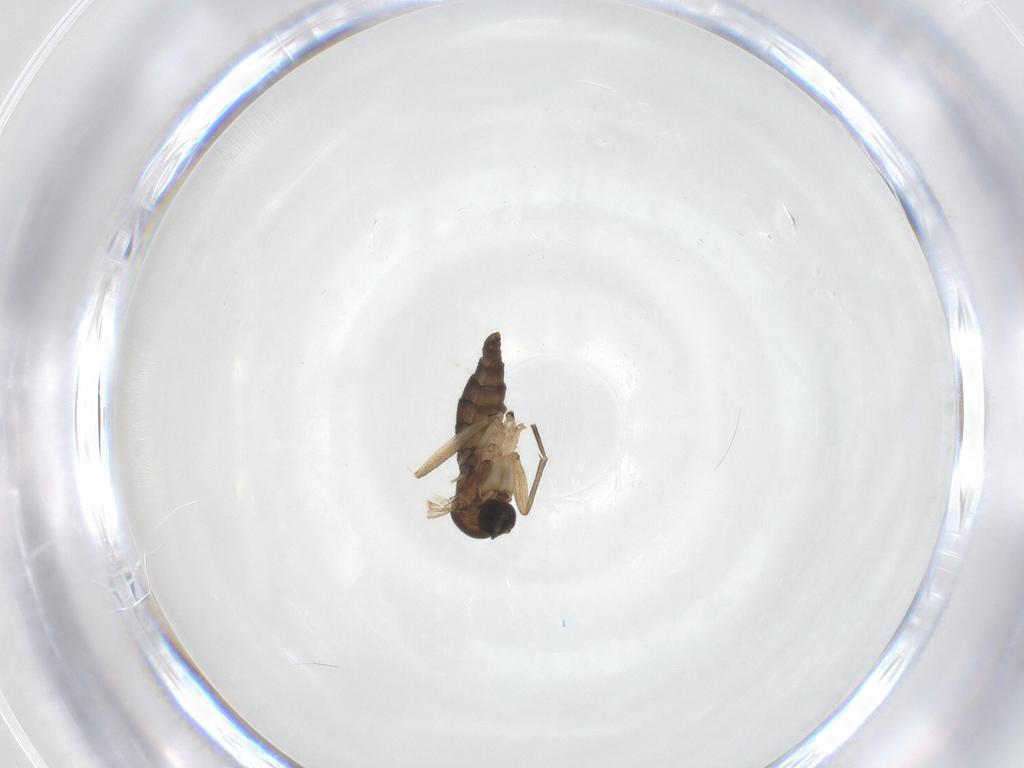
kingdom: Animalia
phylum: Arthropoda
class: Insecta
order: Diptera
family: Sciaridae
